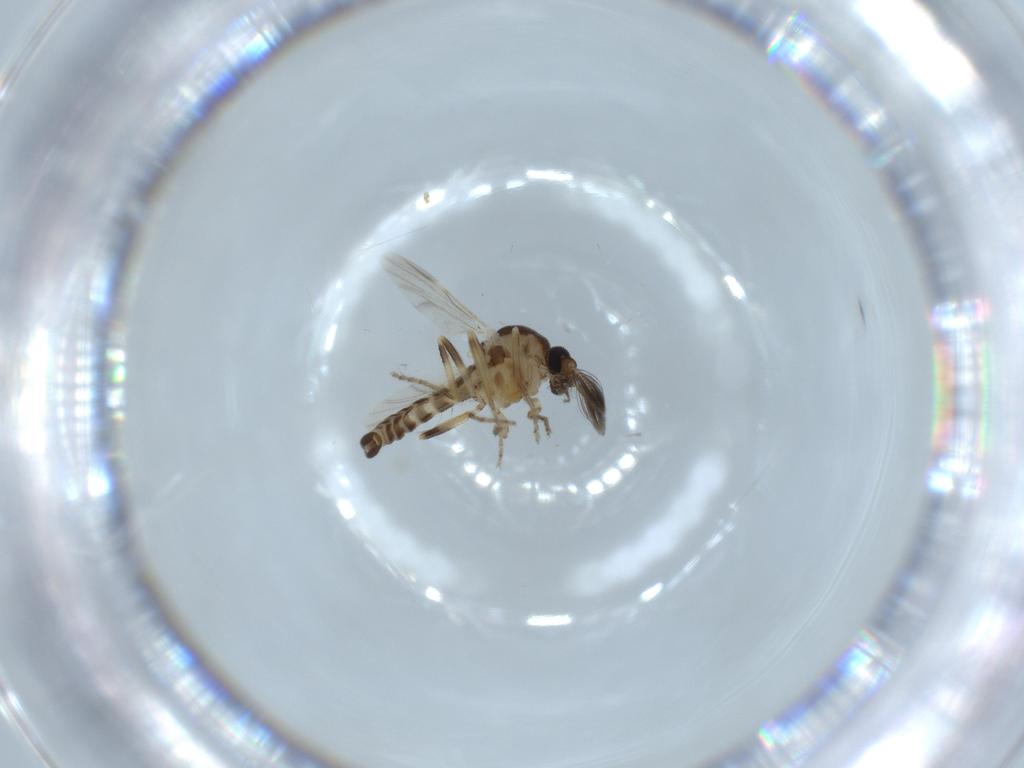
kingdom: Animalia
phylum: Arthropoda
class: Insecta
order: Diptera
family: Ceratopogonidae
